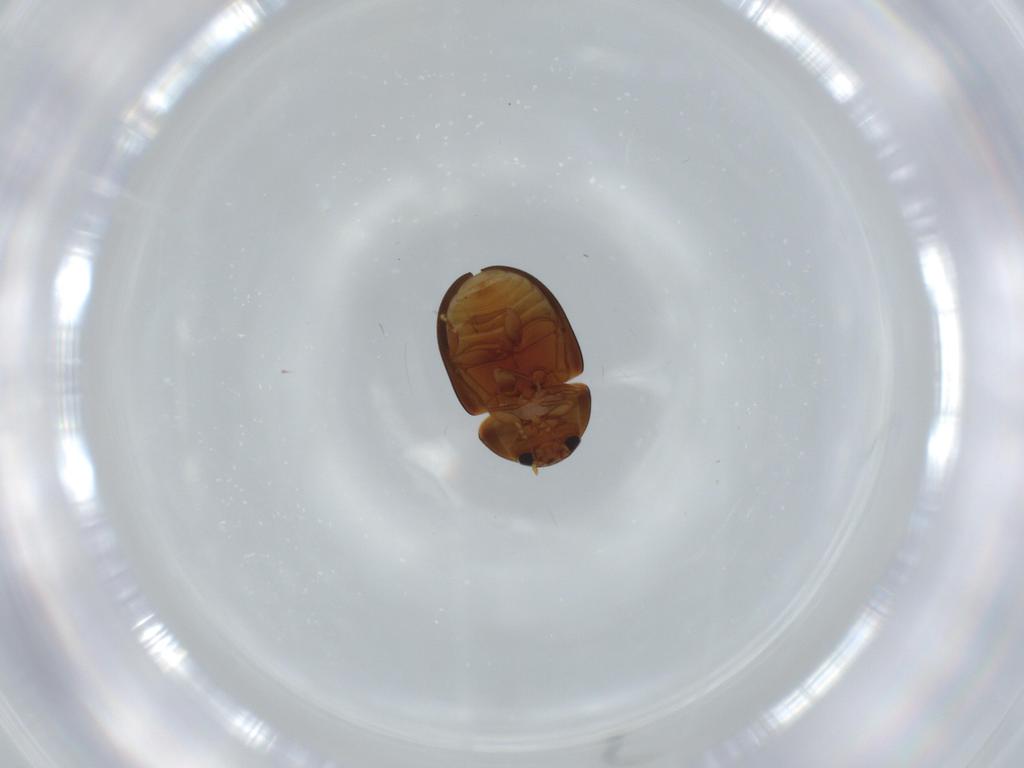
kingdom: Animalia
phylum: Arthropoda
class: Insecta
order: Coleoptera
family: Phalacridae
